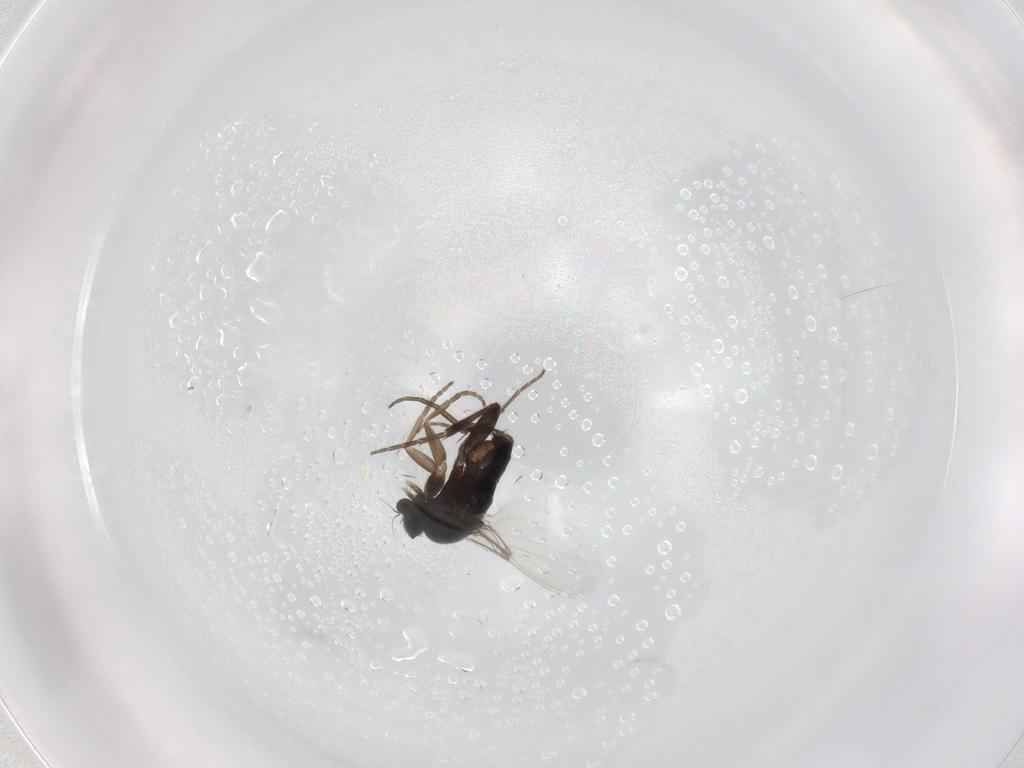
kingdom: Animalia
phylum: Arthropoda
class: Insecta
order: Diptera
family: Phoridae
